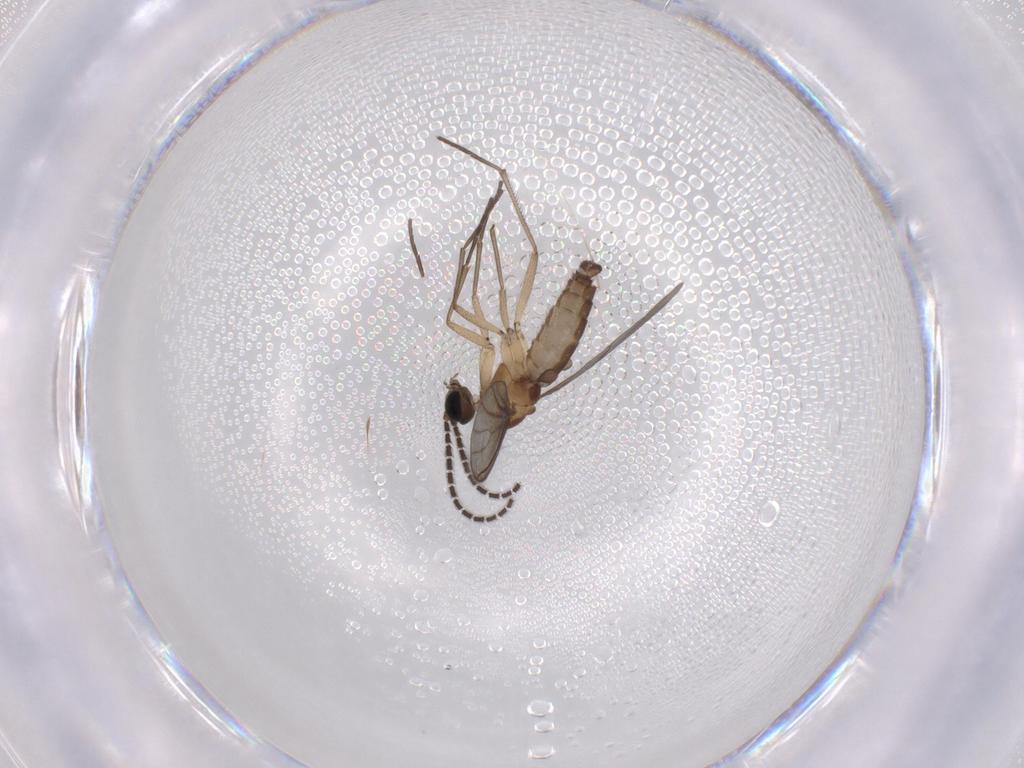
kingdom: Animalia
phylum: Arthropoda
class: Insecta
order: Diptera
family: Sciaridae
